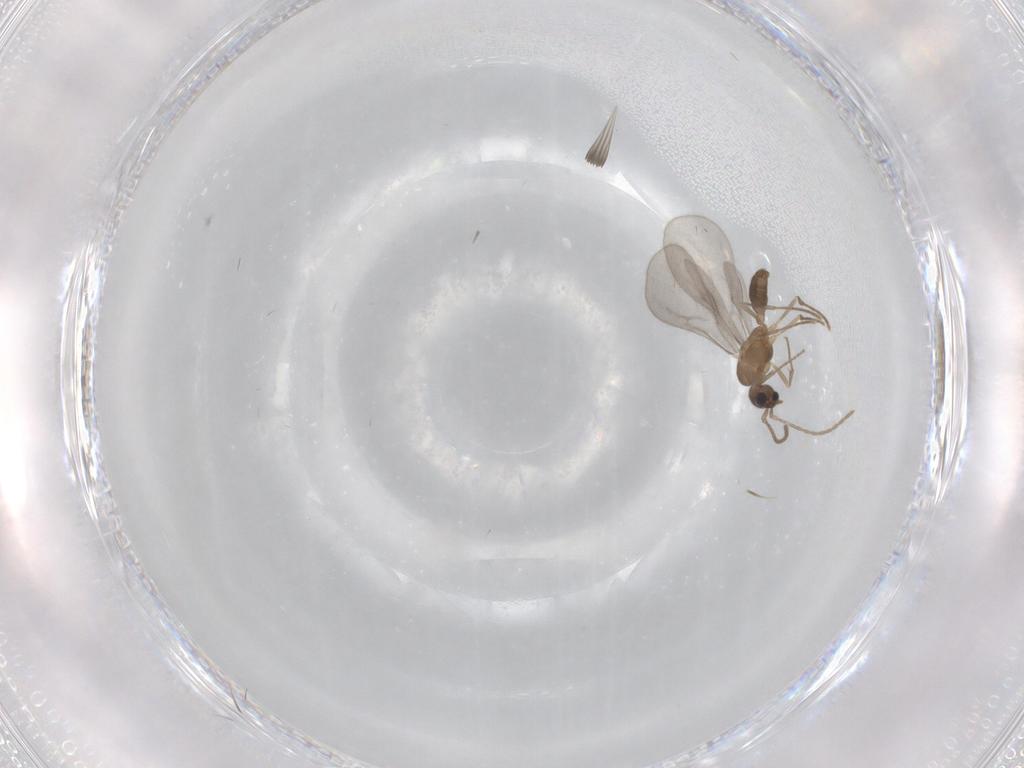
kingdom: Animalia
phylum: Arthropoda
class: Insecta
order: Hymenoptera
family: Formicidae
